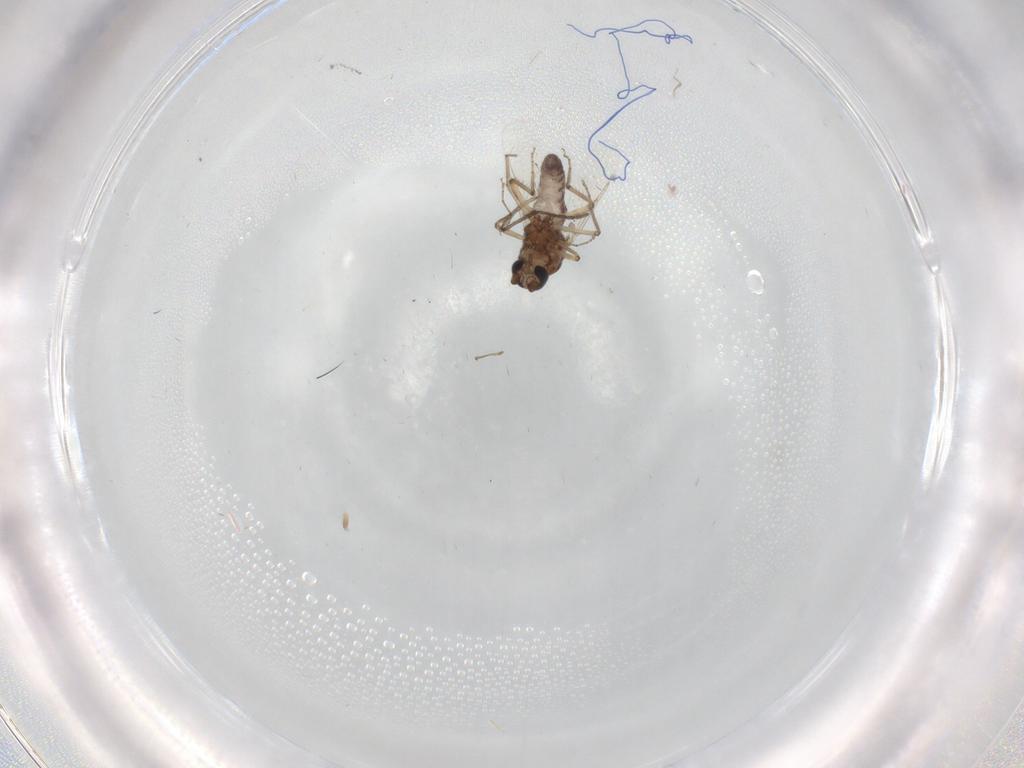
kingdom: Animalia
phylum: Arthropoda
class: Insecta
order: Diptera
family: Ceratopogonidae
